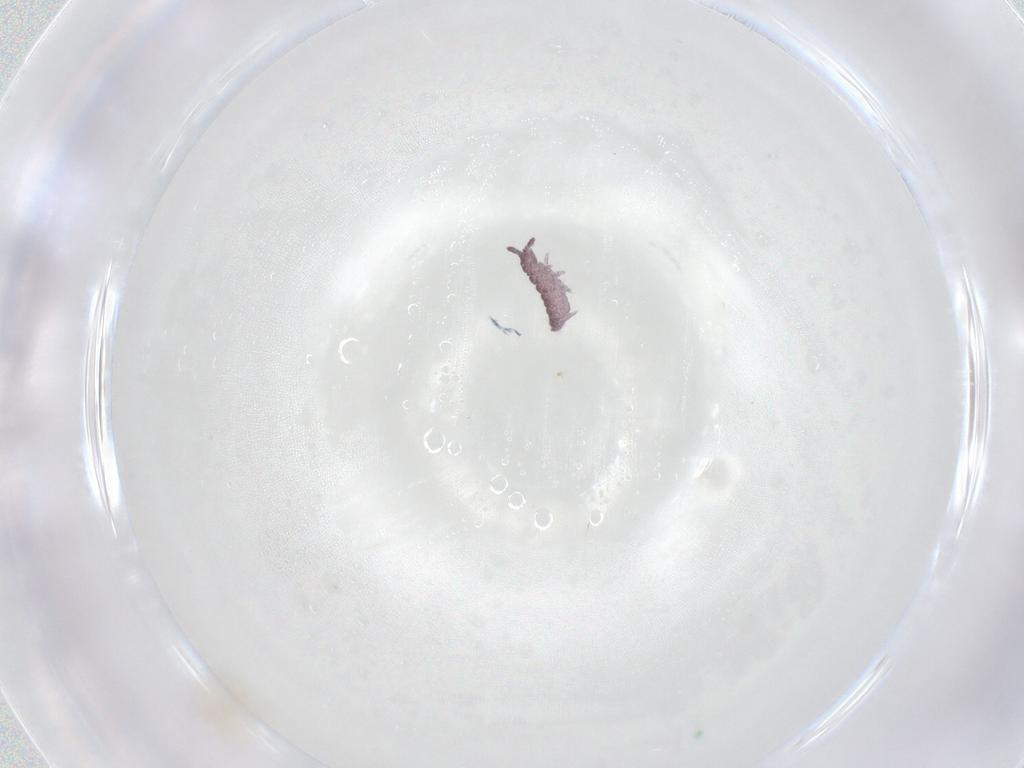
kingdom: Animalia
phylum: Arthropoda
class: Collembola
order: Poduromorpha
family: Hypogastruridae
